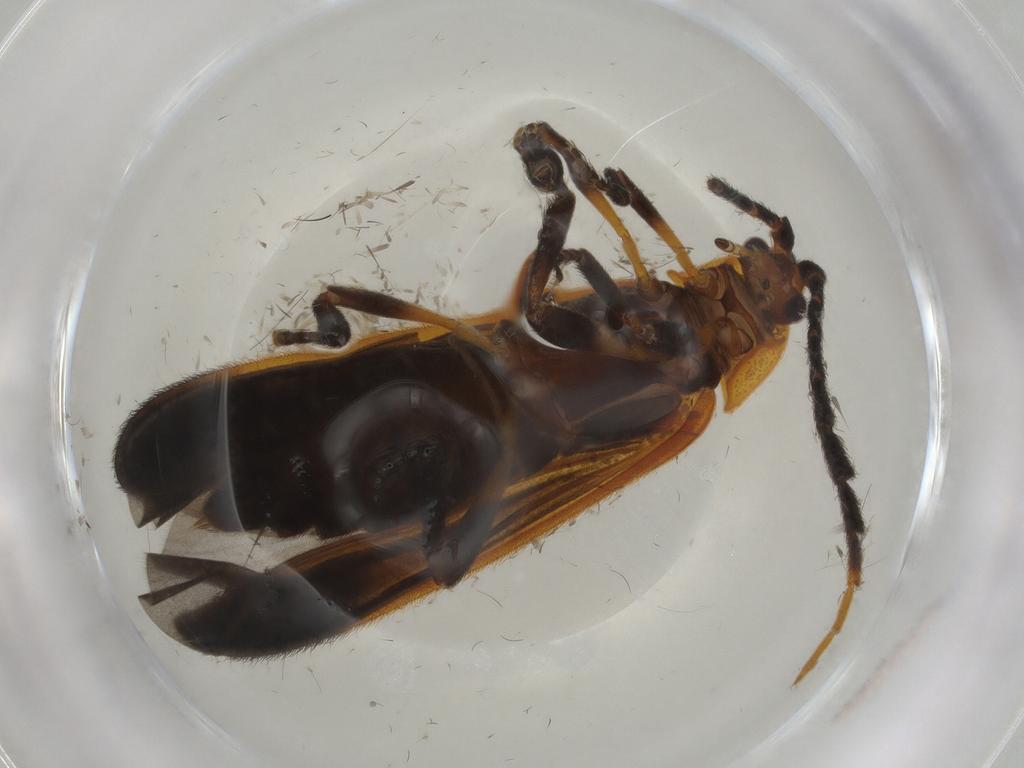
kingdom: Animalia
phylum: Arthropoda
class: Insecta
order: Coleoptera
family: Lycidae
